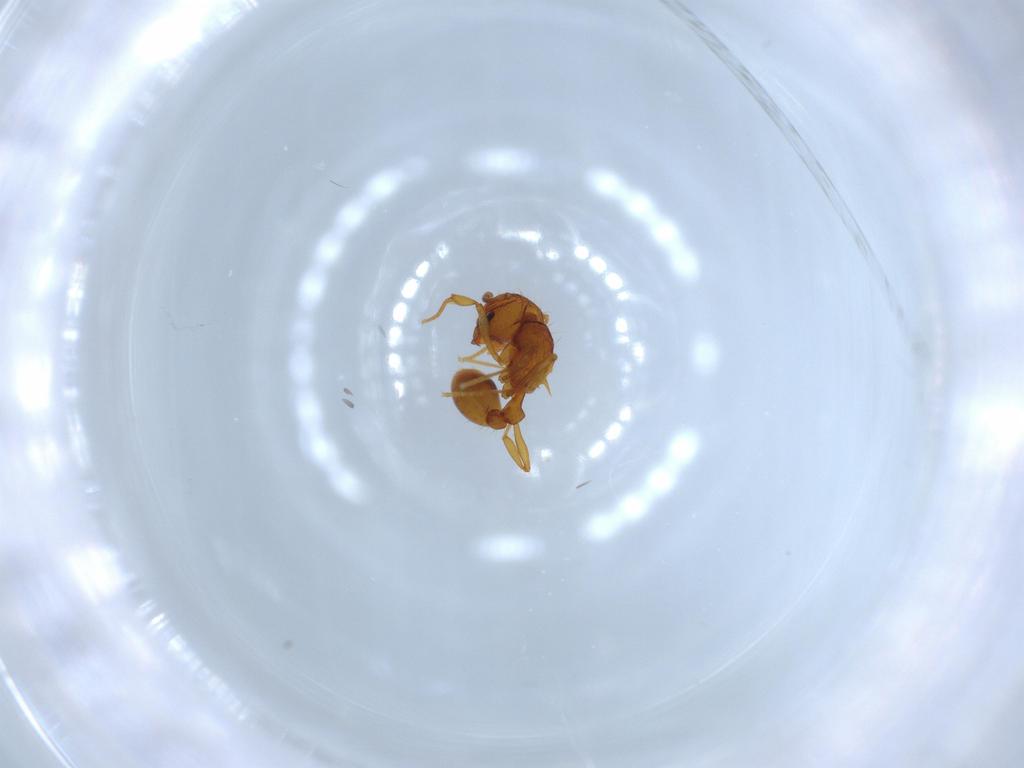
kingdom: Animalia
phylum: Arthropoda
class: Insecta
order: Hymenoptera
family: Formicidae
